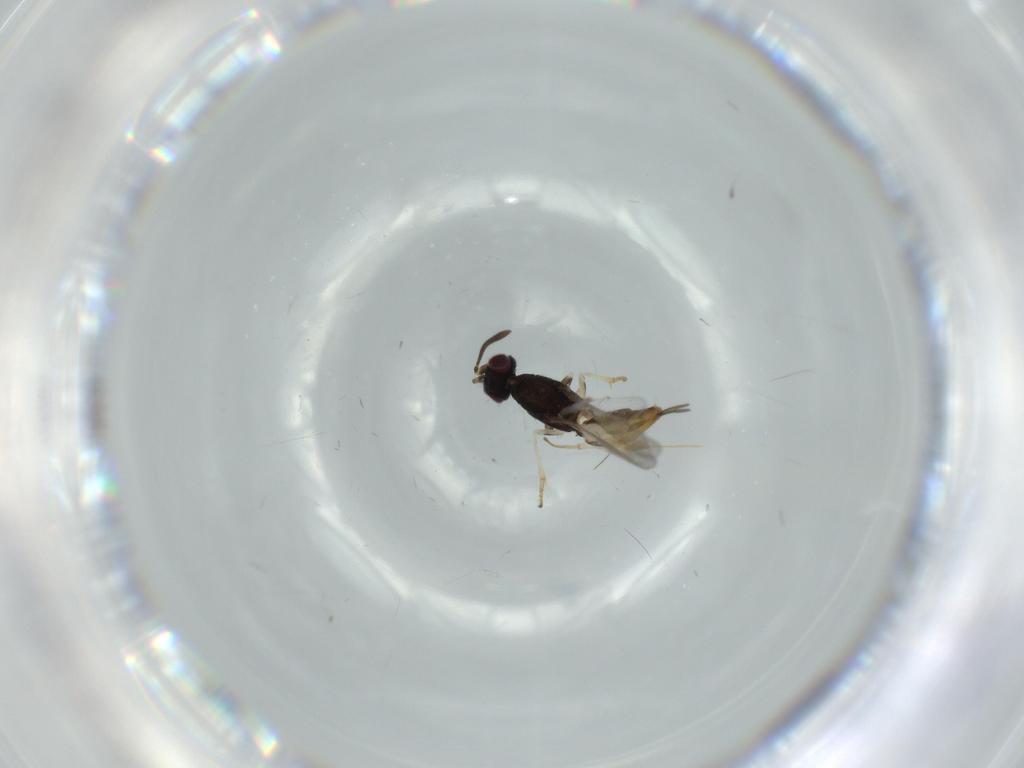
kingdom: Animalia
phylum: Arthropoda
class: Insecta
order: Hymenoptera
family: Eupelmidae
